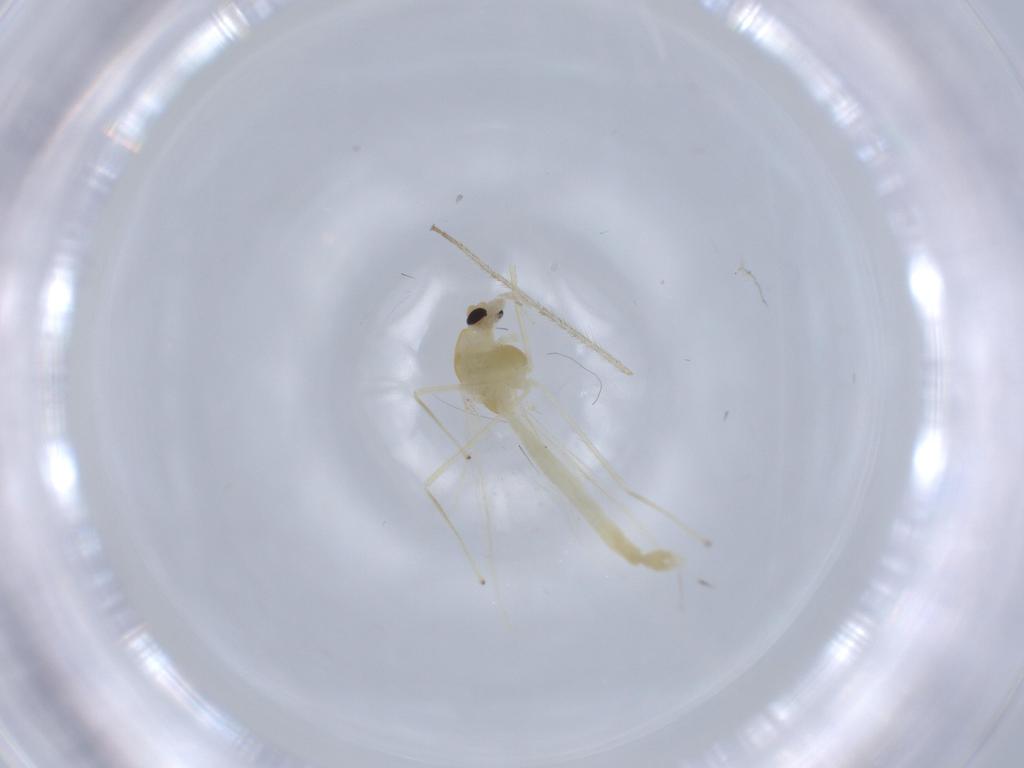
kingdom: Animalia
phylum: Arthropoda
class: Insecta
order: Diptera
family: Chironomidae
